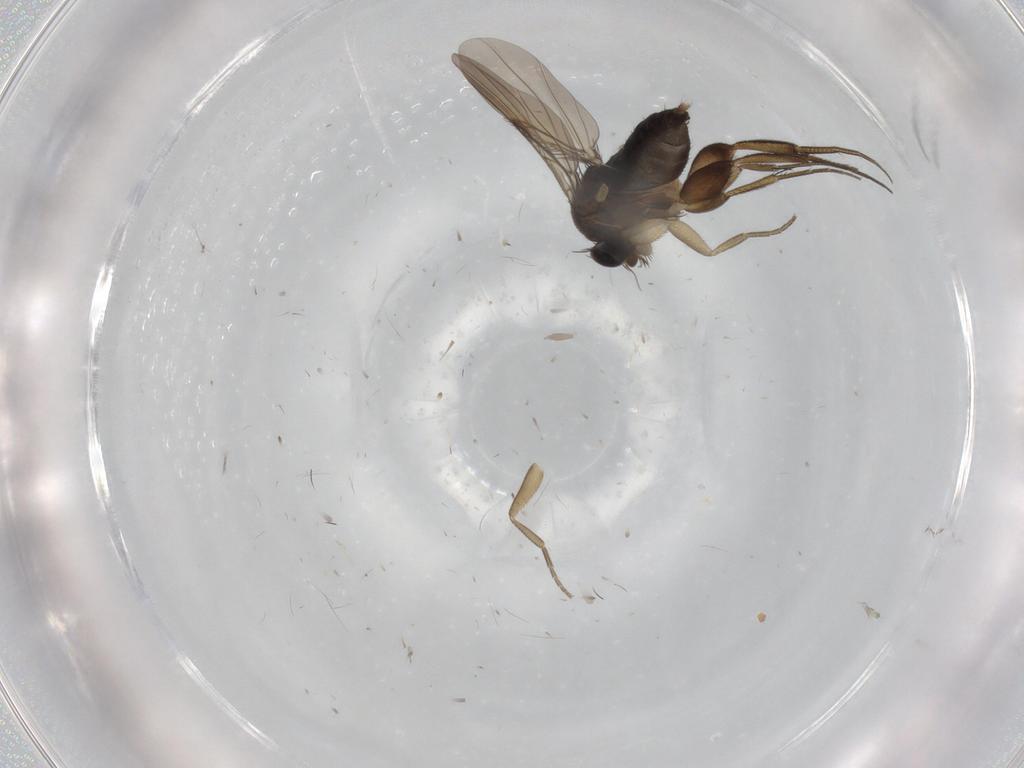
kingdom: Animalia
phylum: Arthropoda
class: Insecta
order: Diptera
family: Phoridae
